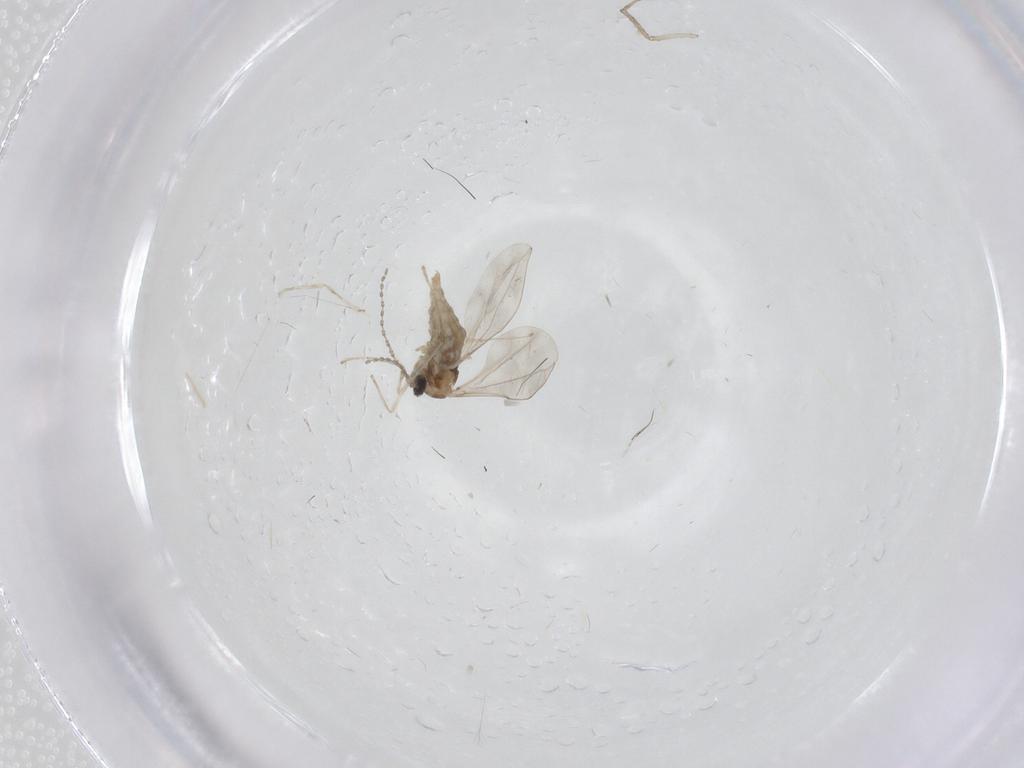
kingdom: Animalia
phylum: Arthropoda
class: Insecta
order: Diptera
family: Cecidomyiidae
